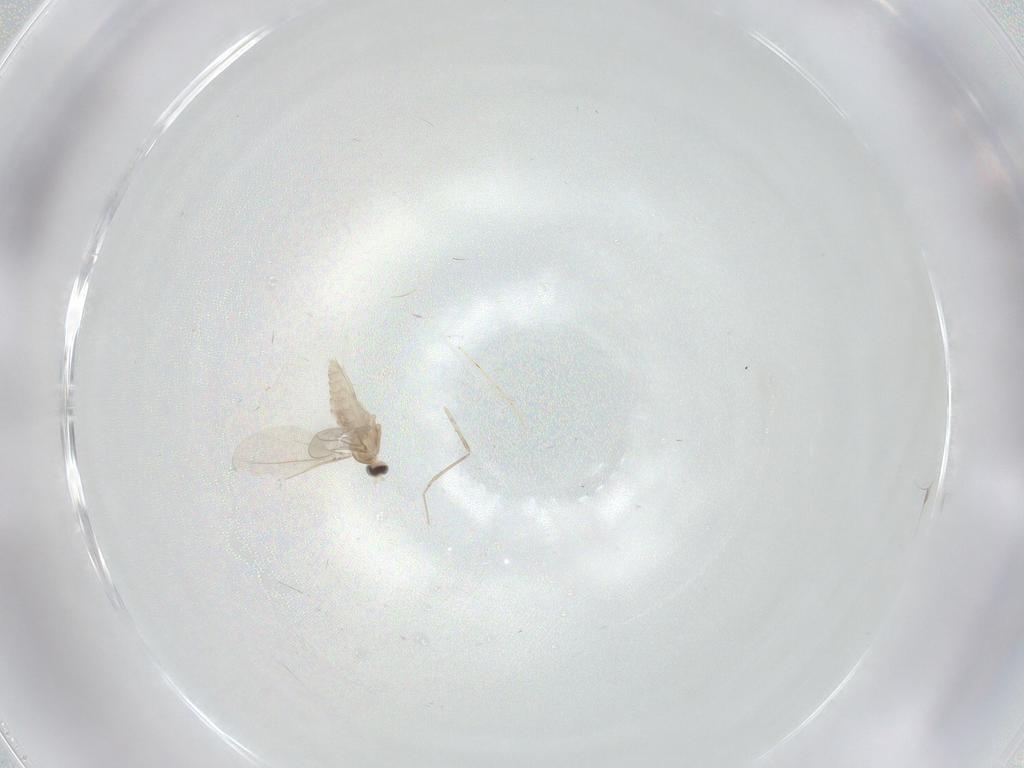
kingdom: Animalia
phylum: Arthropoda
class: Insecta
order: Diptera
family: Cecidomyiidae
